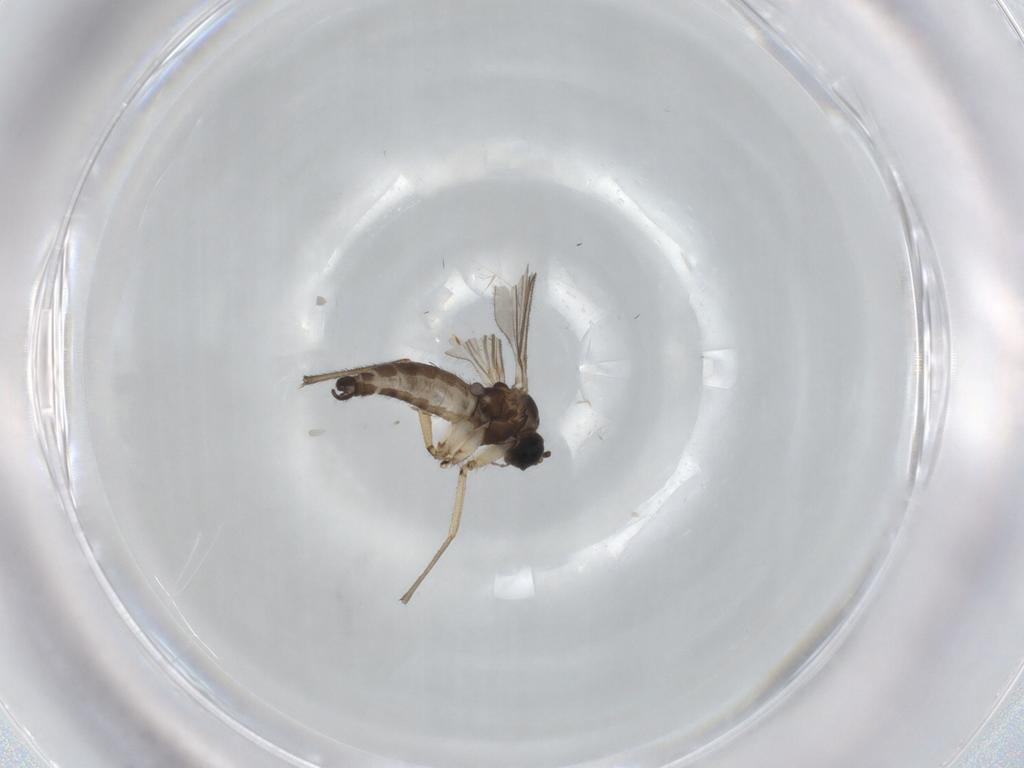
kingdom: Animalia
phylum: Arthropoda
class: Insecta
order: Diptera
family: Sciaridae
